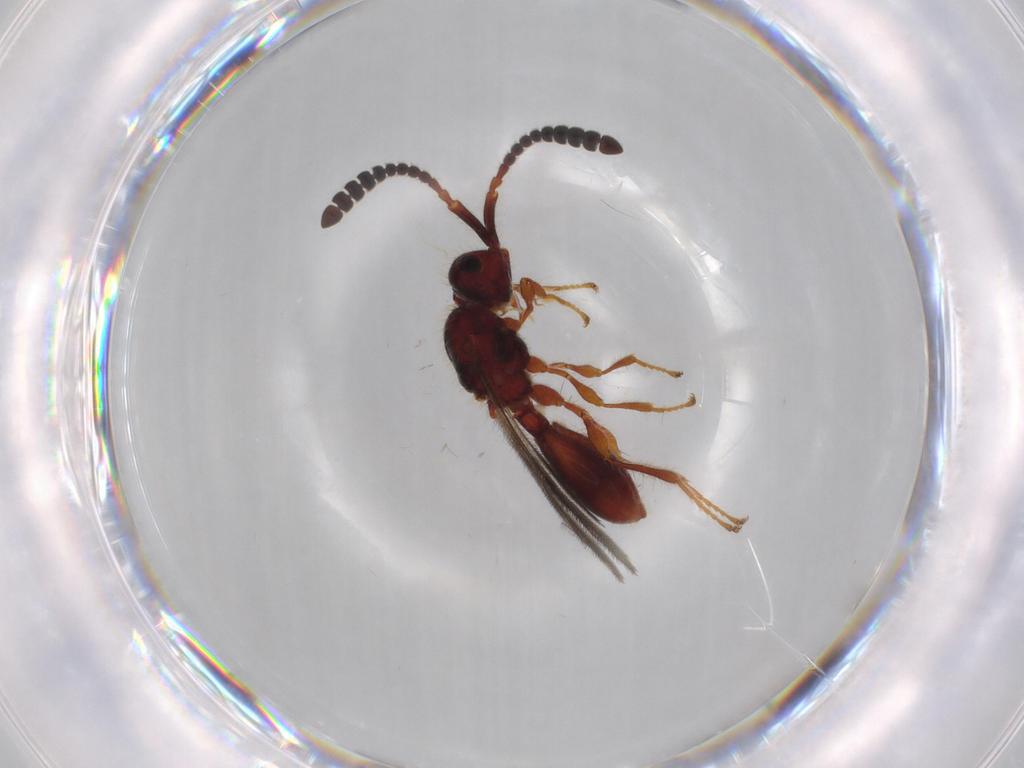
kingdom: Animalia
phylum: Arthropoda
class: Insecta
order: Hymenoptera
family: Diapriidae
